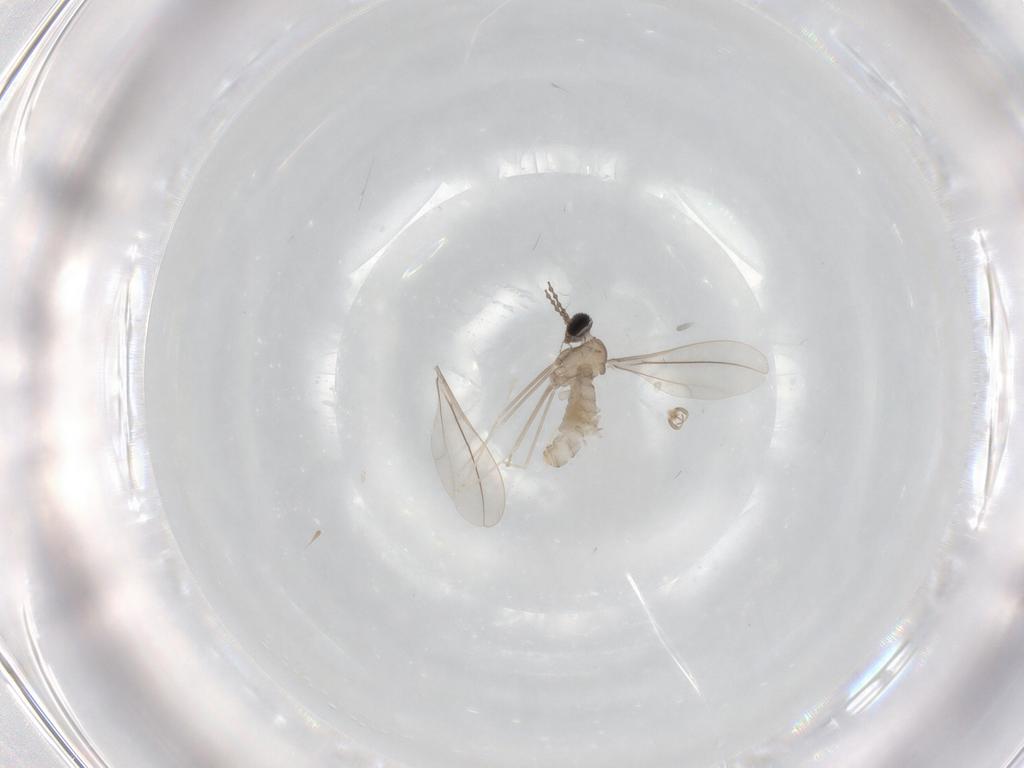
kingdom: Animalia
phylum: Arthropoda
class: Insecta
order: Diptera
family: Cecidomyiidae
